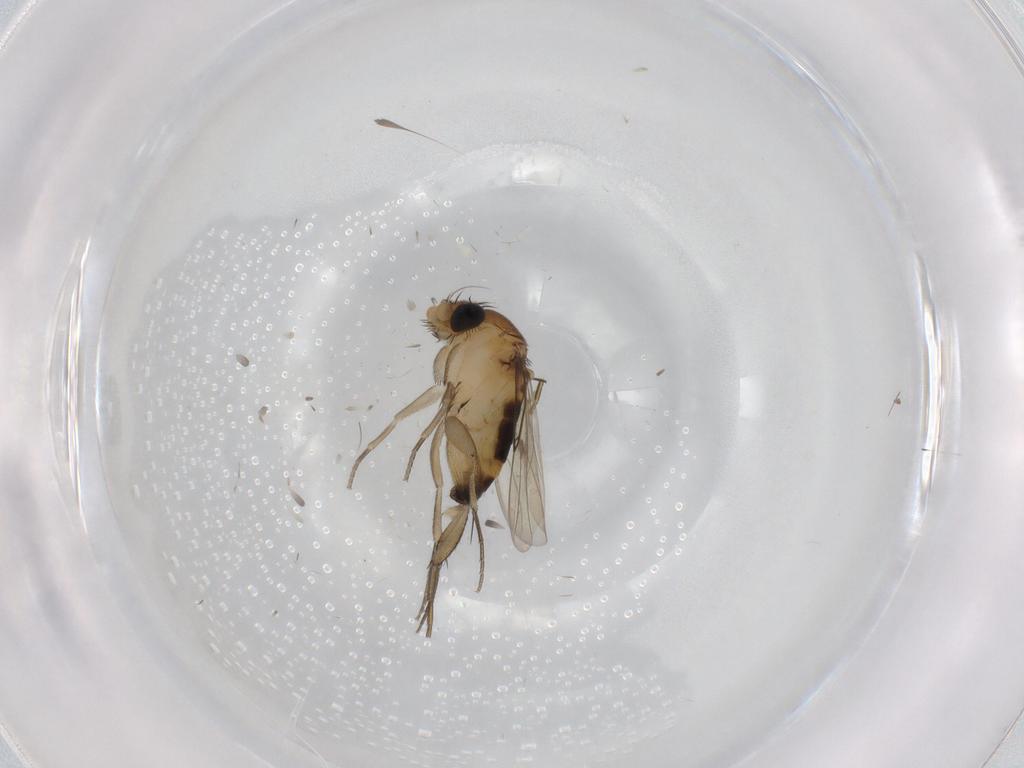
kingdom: Animalia
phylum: Arthropoda
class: Insecta
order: Diptera
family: Phoridae
